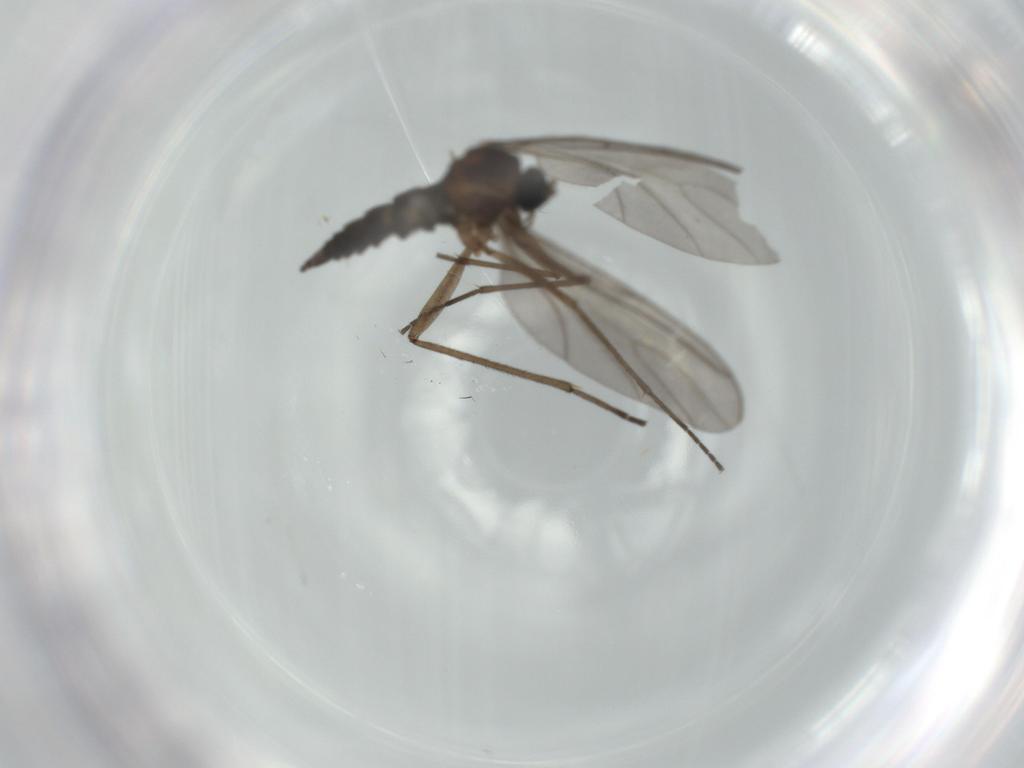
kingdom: Animalia
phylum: Arthropoda
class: Insecta
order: Diptera
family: Sciaridae
